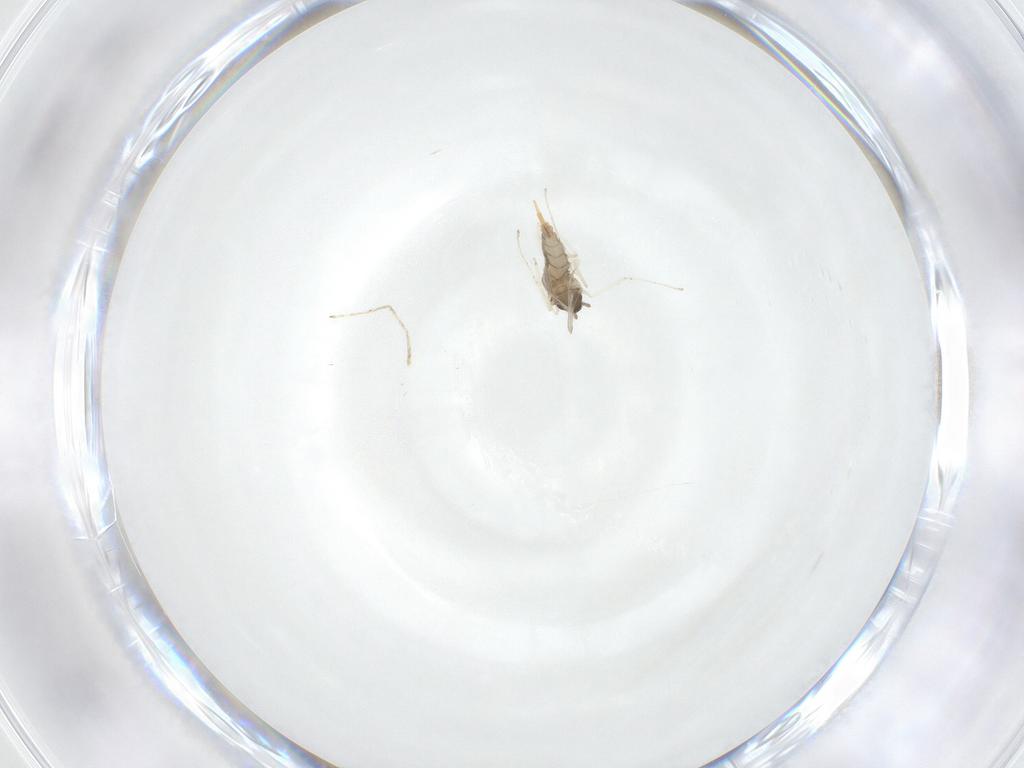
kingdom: Animalia
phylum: Arthropoda
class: Insecta
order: Diptera
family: Cecidomyiidae
